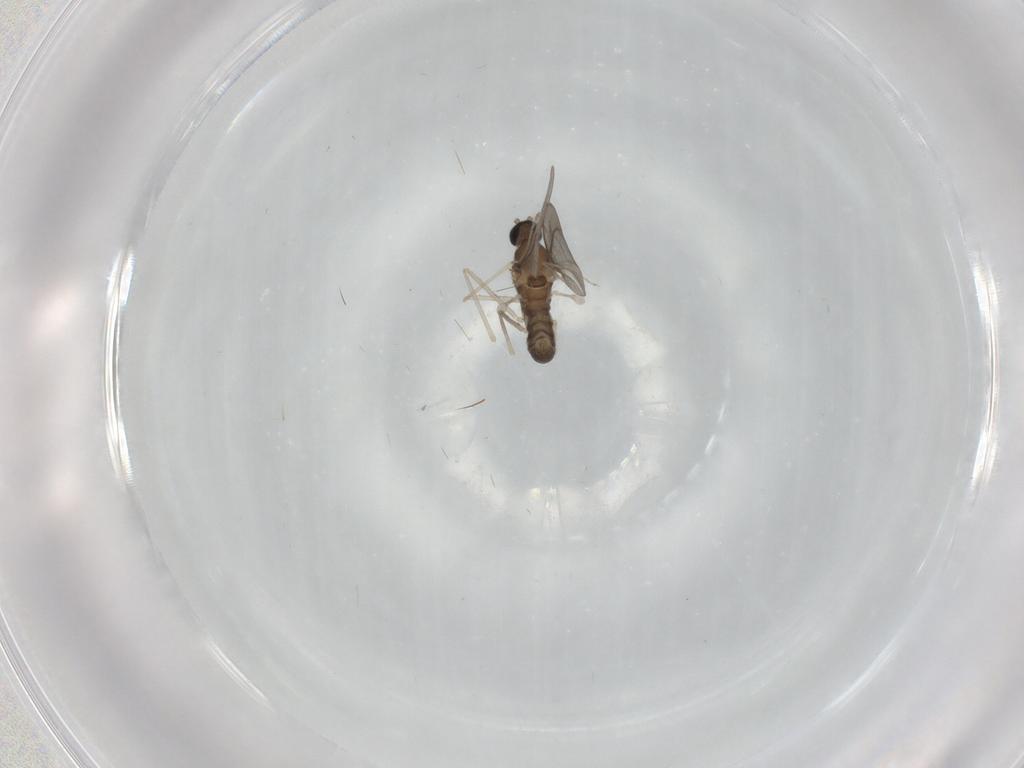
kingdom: Animalia
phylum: Arthropoda
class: Insecta
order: Diptera
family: Cecidomyiidae
